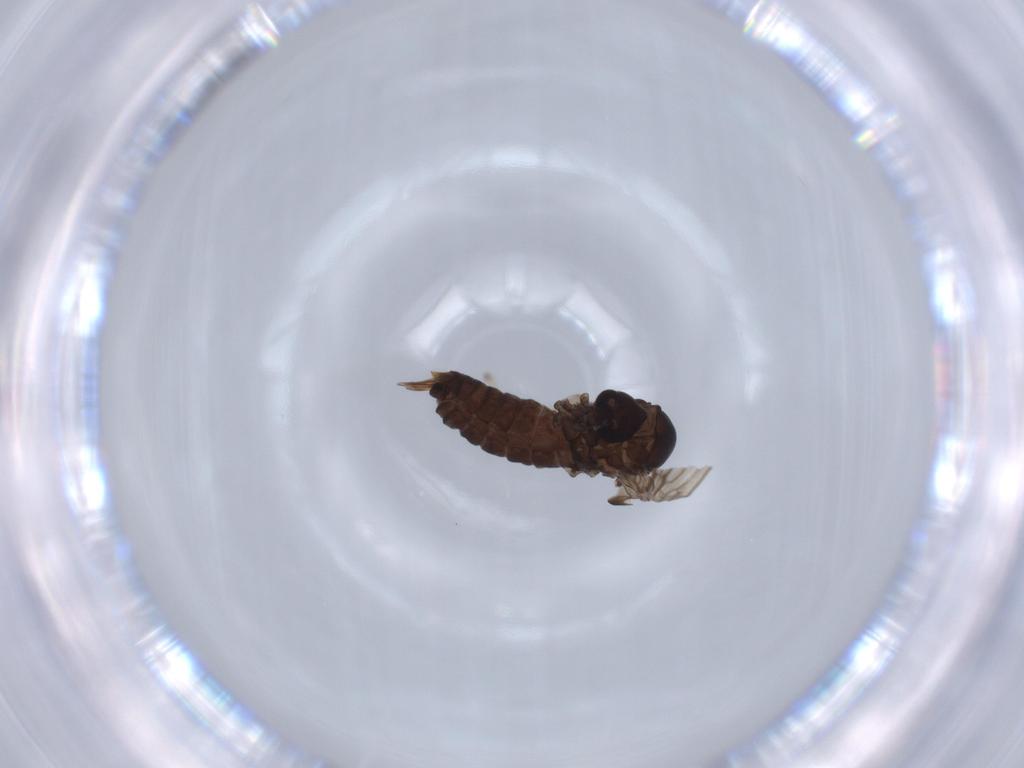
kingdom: Animalia
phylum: Arthropoda
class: Insecta
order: Diptera
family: Psychodidae
